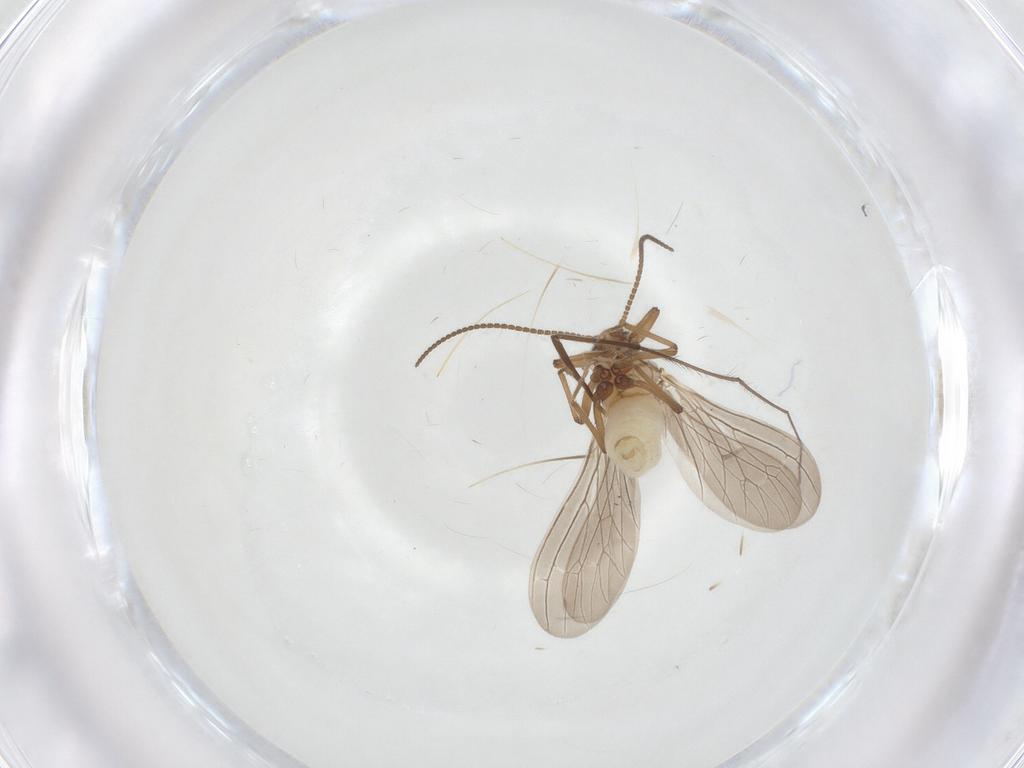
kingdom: Animalia
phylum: Arthropoda
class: Insecta
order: Neuroptera
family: Coniopterygidae
